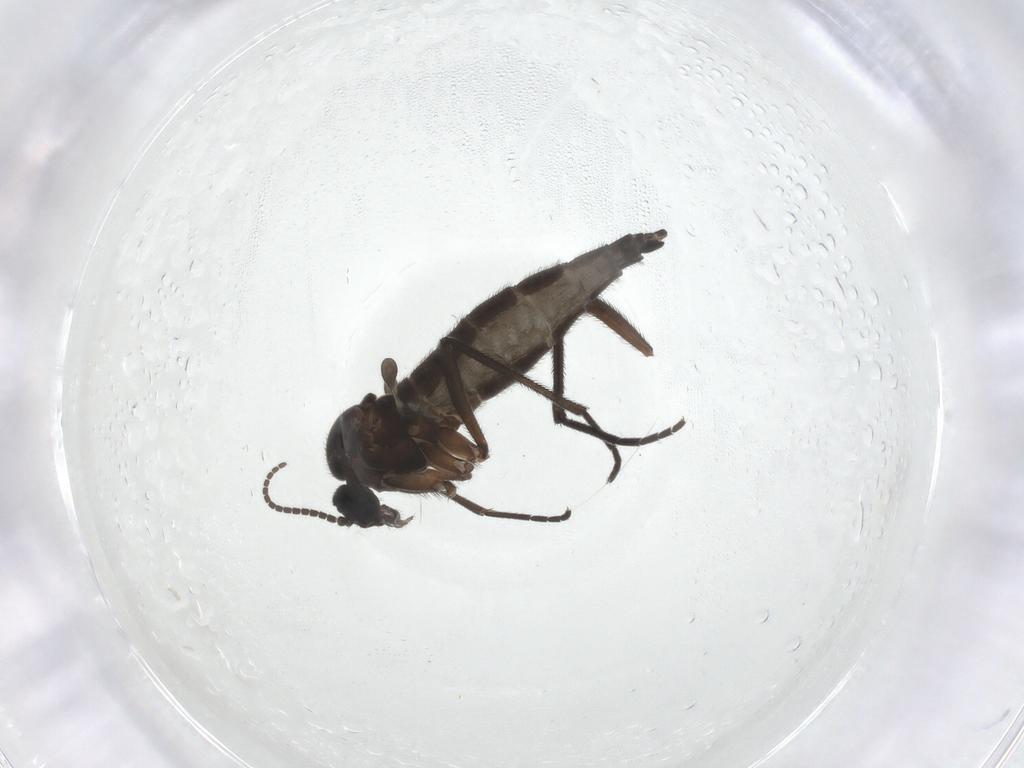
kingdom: Animalia
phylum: Arthropoda
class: Insecta
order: Diptera
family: Sciaridae
